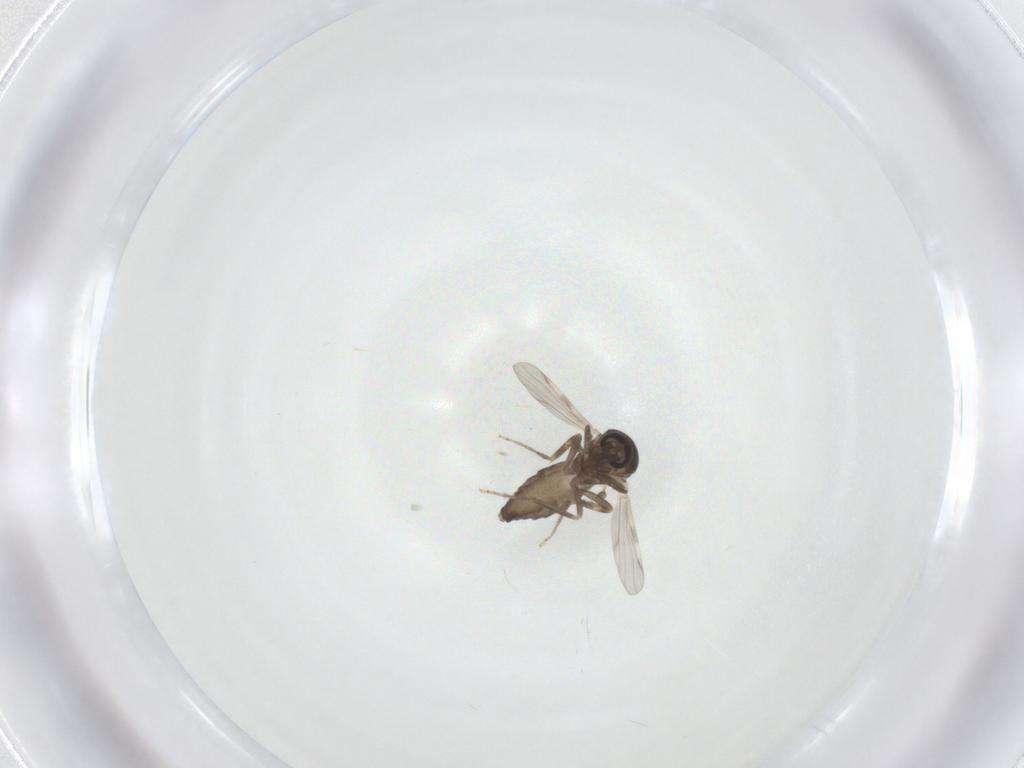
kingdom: Animalia
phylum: Arthropoda
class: Insecta
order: Diptera
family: Ceratopogonidae
